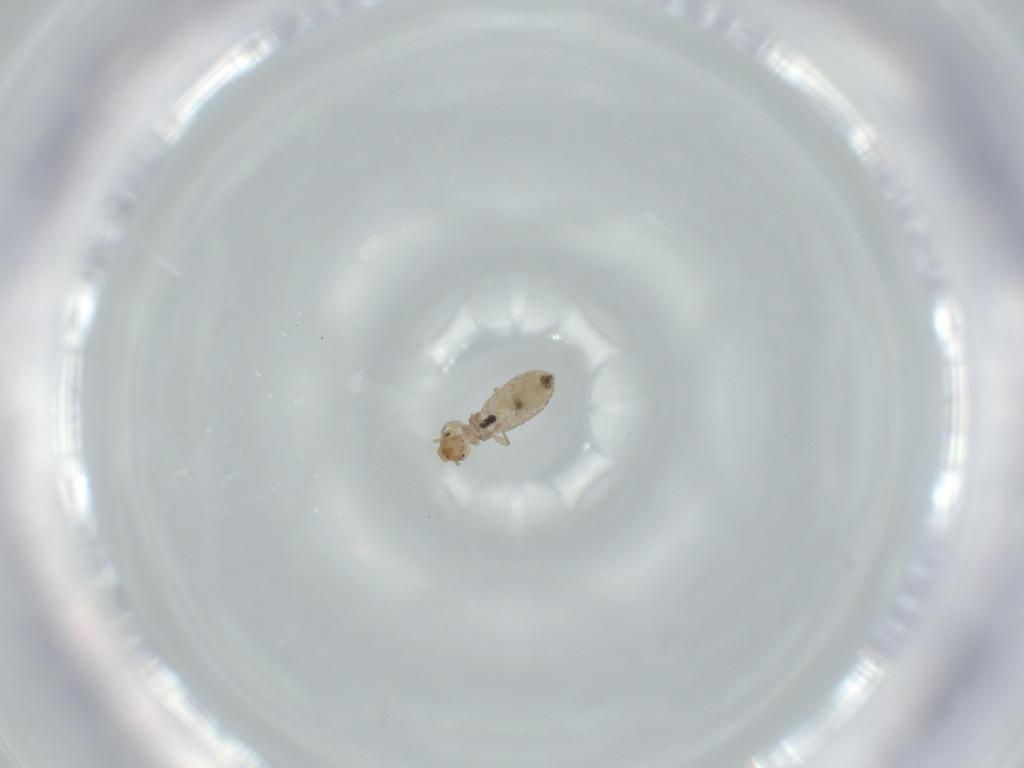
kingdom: Animalia
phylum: Arthropoda
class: Insecta
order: Psocodea
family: Liposcelididae
